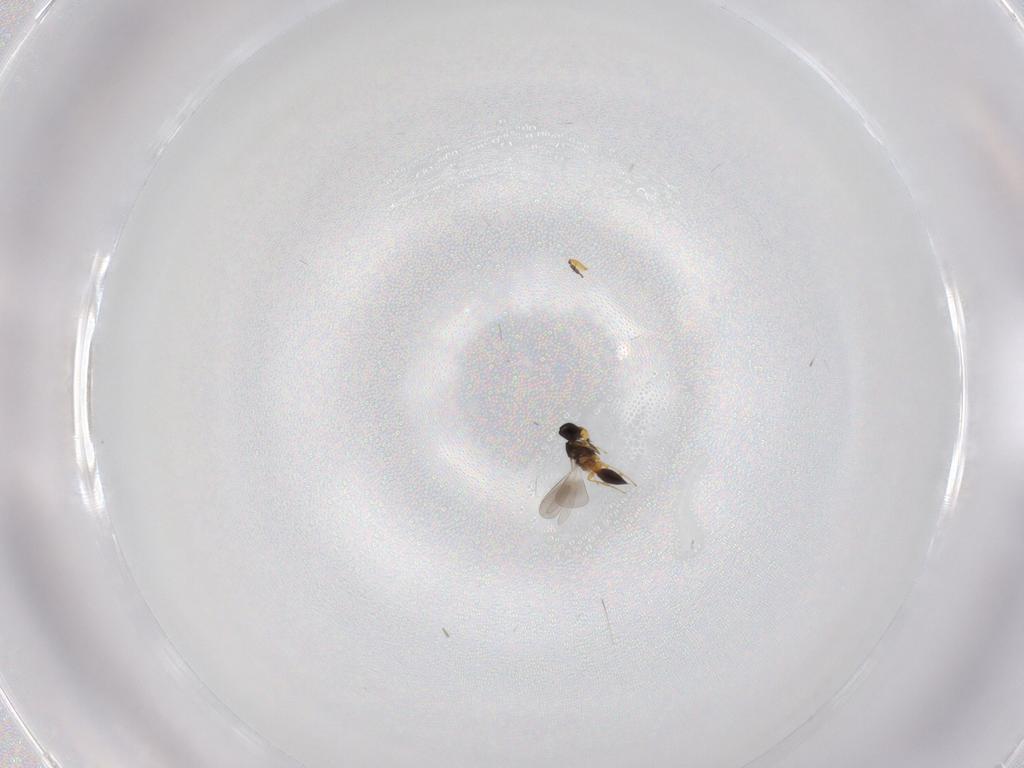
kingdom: Animalia
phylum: Arthropoda
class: Insecta
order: Hymenoptera
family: Platygastridae
